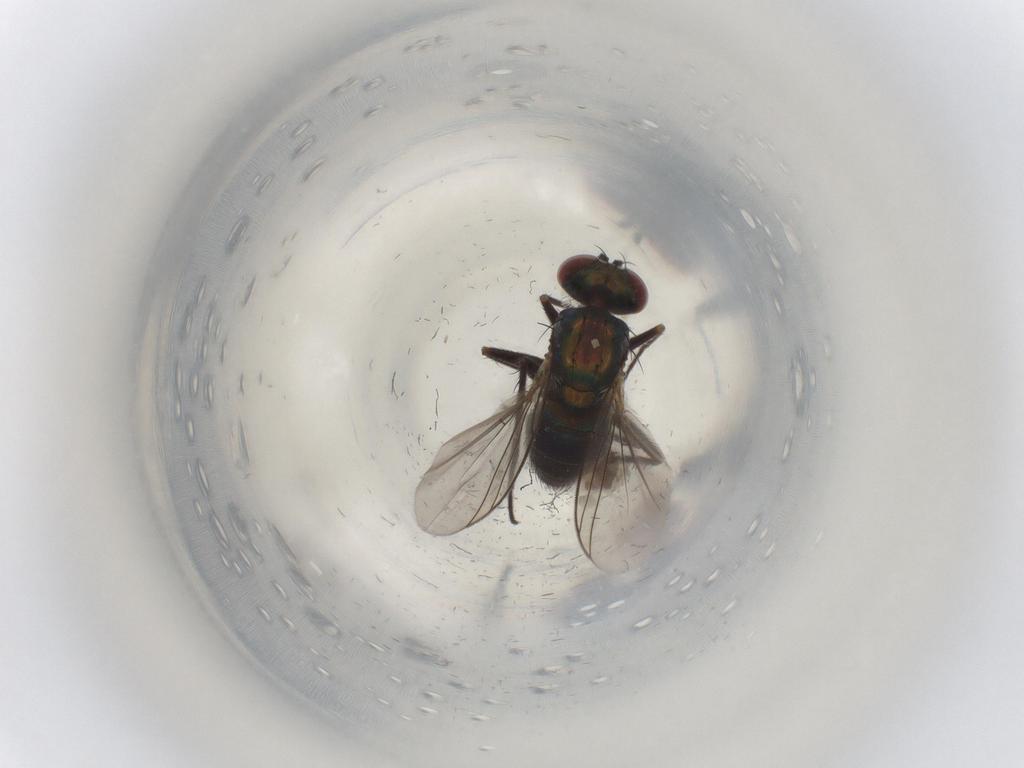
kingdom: Animalia
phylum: Arthropoda
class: Insecta
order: Diptera
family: Dolichopodidae
